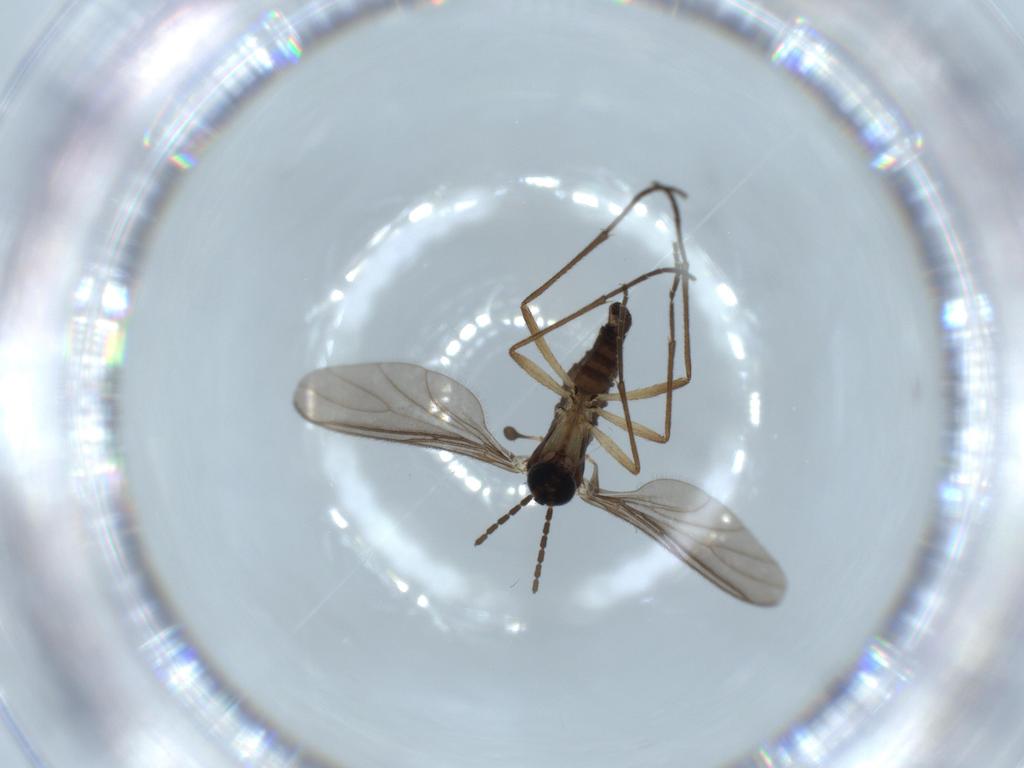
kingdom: Animalia
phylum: Arthropoda
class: Insecta
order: Diptera
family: Sciaridae
